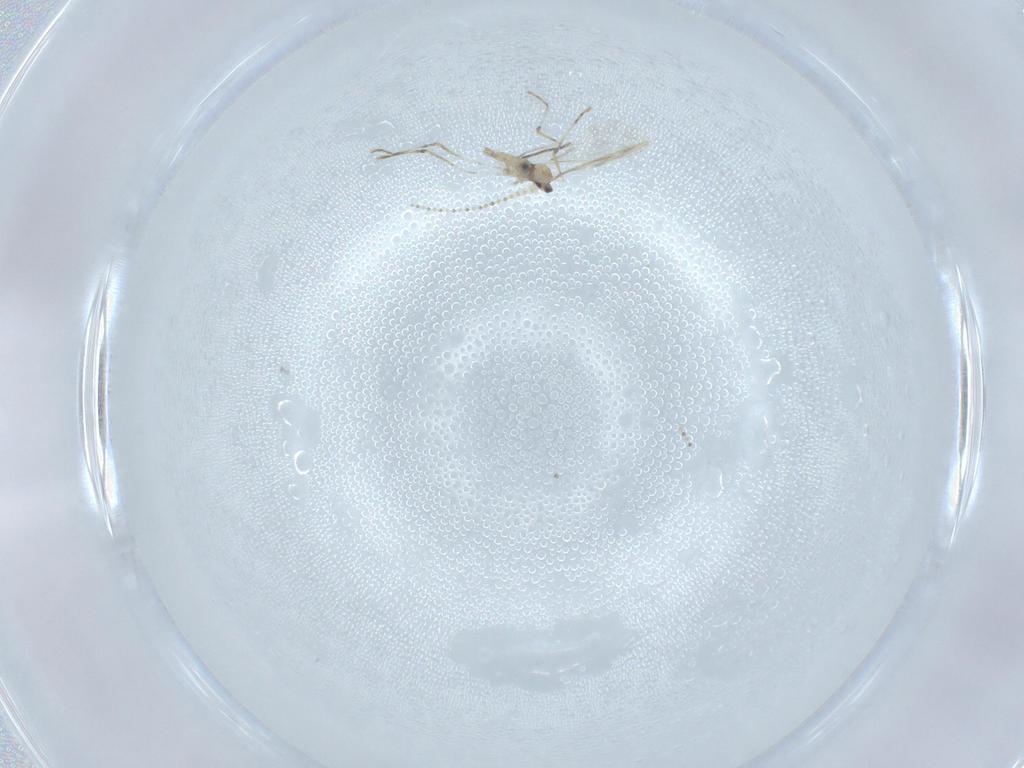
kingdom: Animalia
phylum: Arthropoda
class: Insecta
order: Diptera
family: Cecidomyiidae
